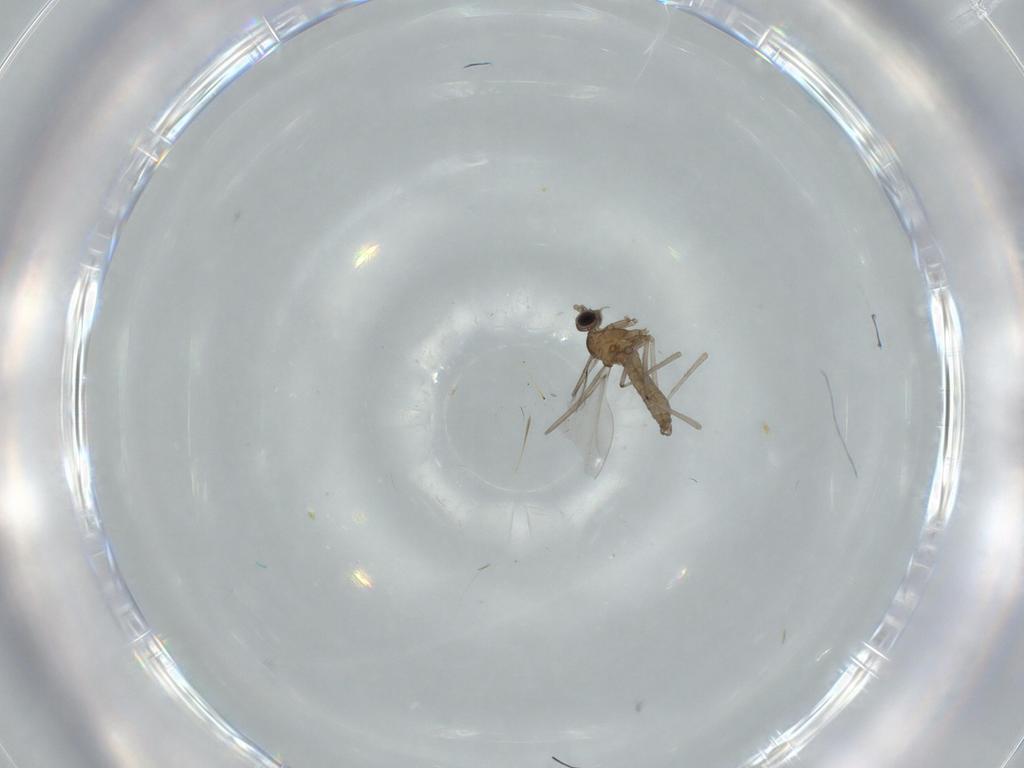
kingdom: Animalia
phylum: Arthropoda
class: Insecta
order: Diptera
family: Cecidomyiidae
